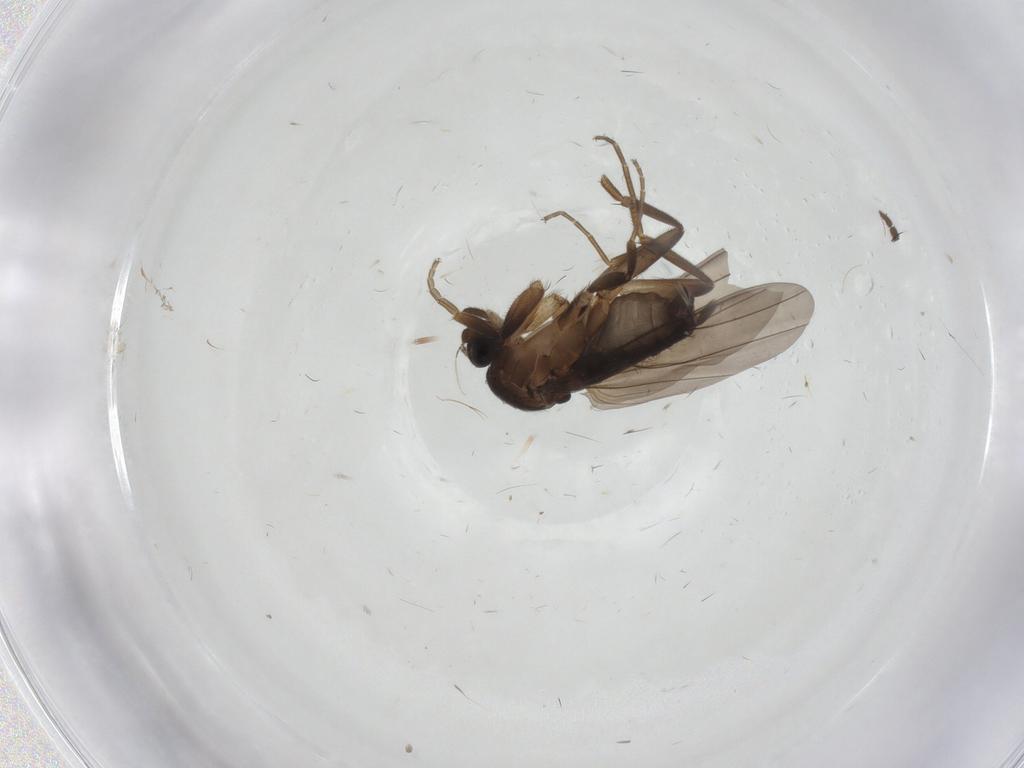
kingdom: Animalia
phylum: Arthropoda
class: Insecta
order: Diptera
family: Phoridae
